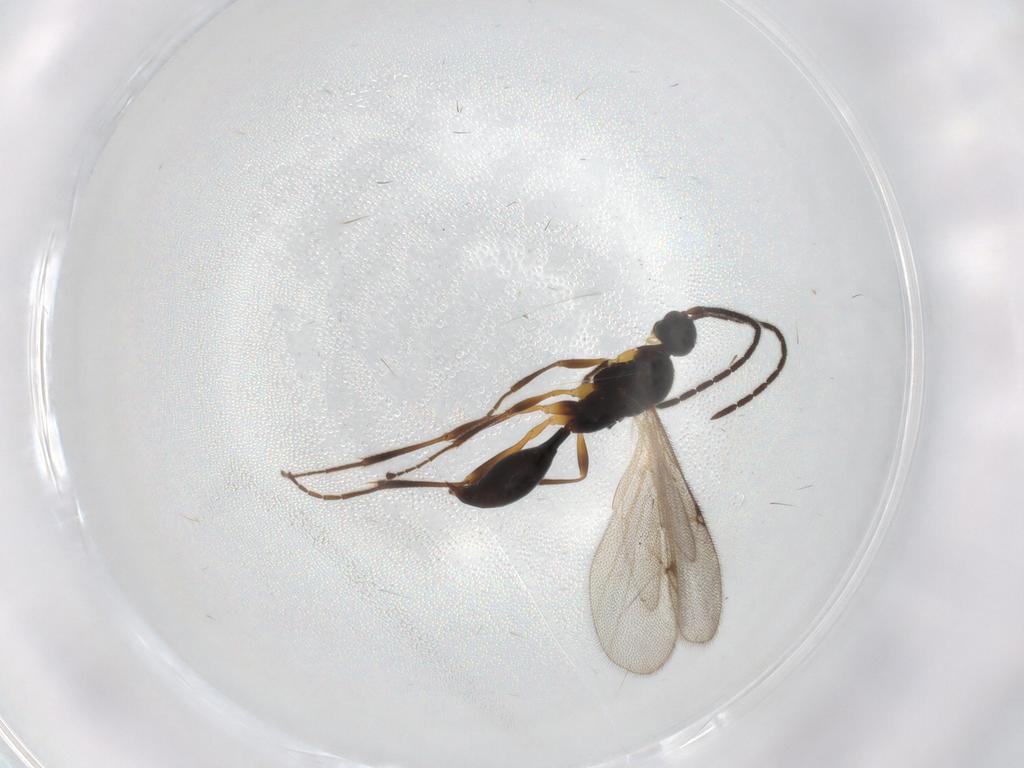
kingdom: Animalia
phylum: Arthropoda
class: Insecta
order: Hymenoptera
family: Proctotrupidae
